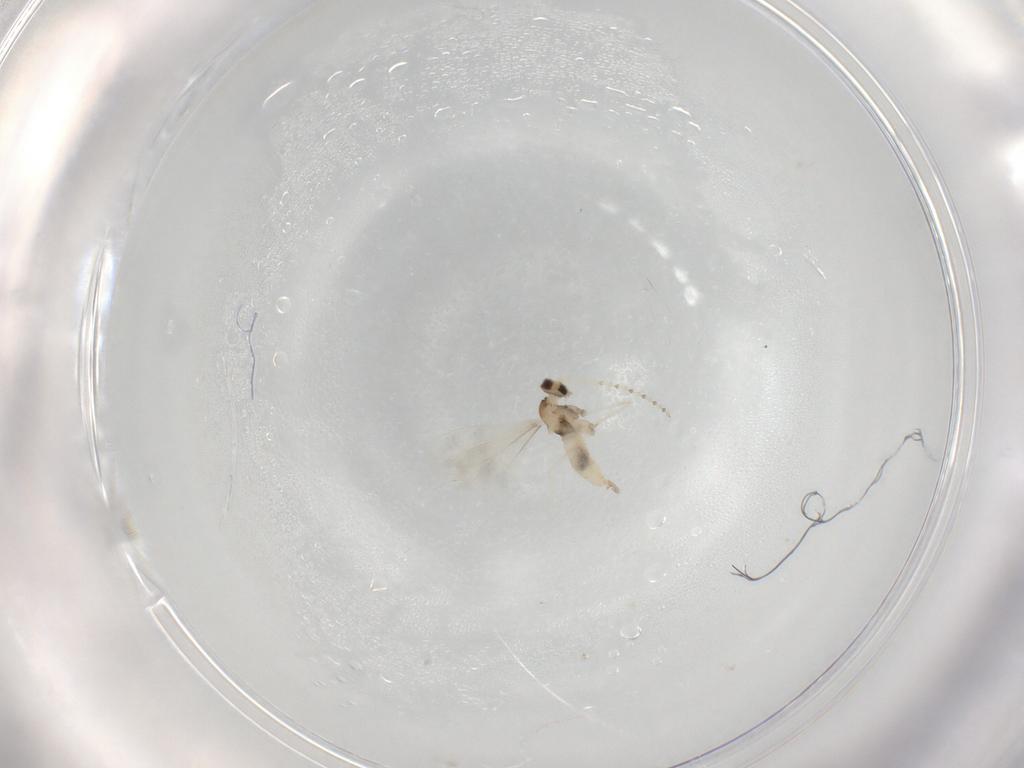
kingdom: Animalia
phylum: Arthropoda
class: Insecta
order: Diptera
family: Cecidomyiidae
